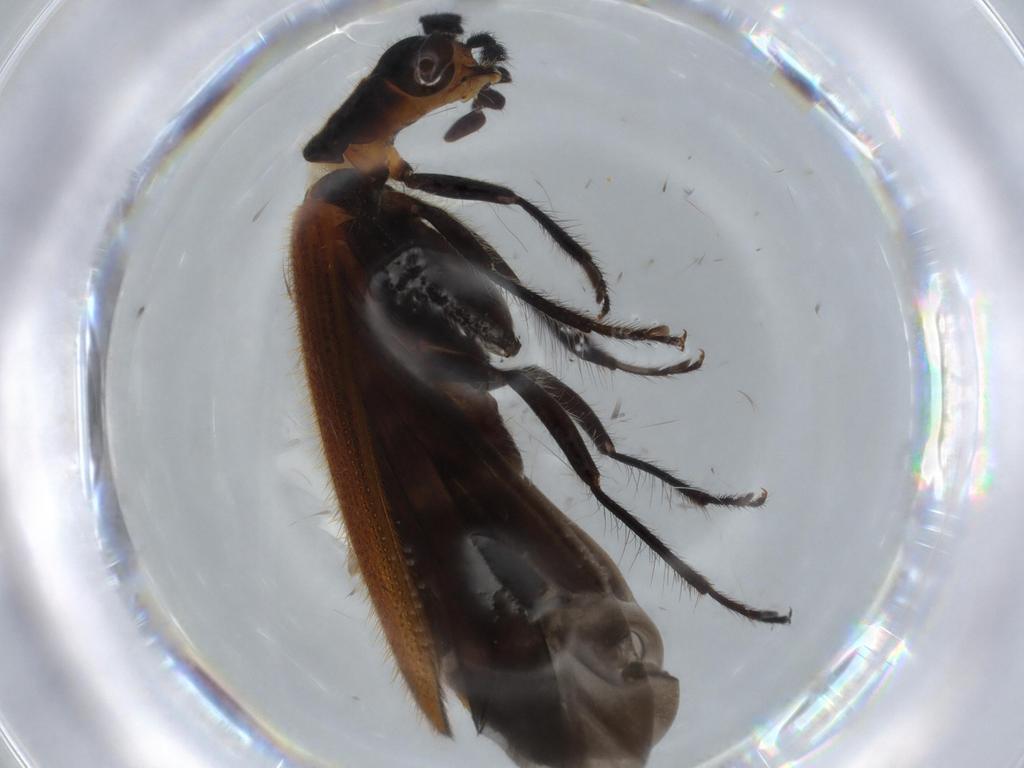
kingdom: Animalia
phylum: Arthropoda
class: Insecta
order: Coleoptera
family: Cleridae
